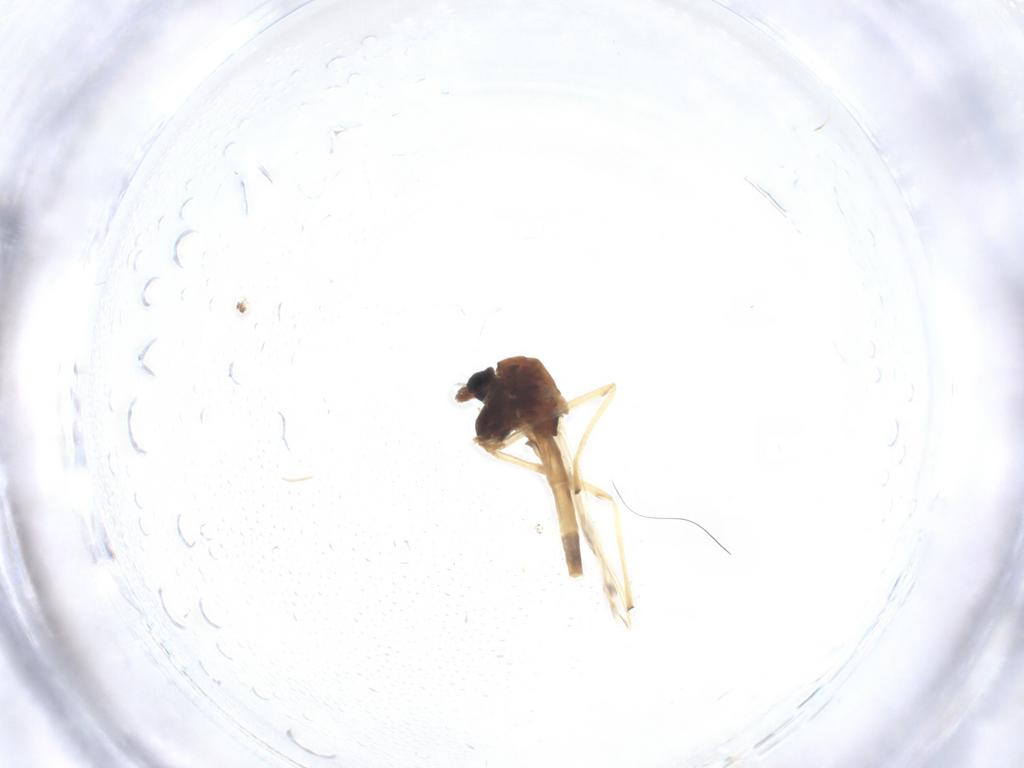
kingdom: Animalia
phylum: Arthropoda
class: Insecta
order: Diptera
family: Chironomidae
